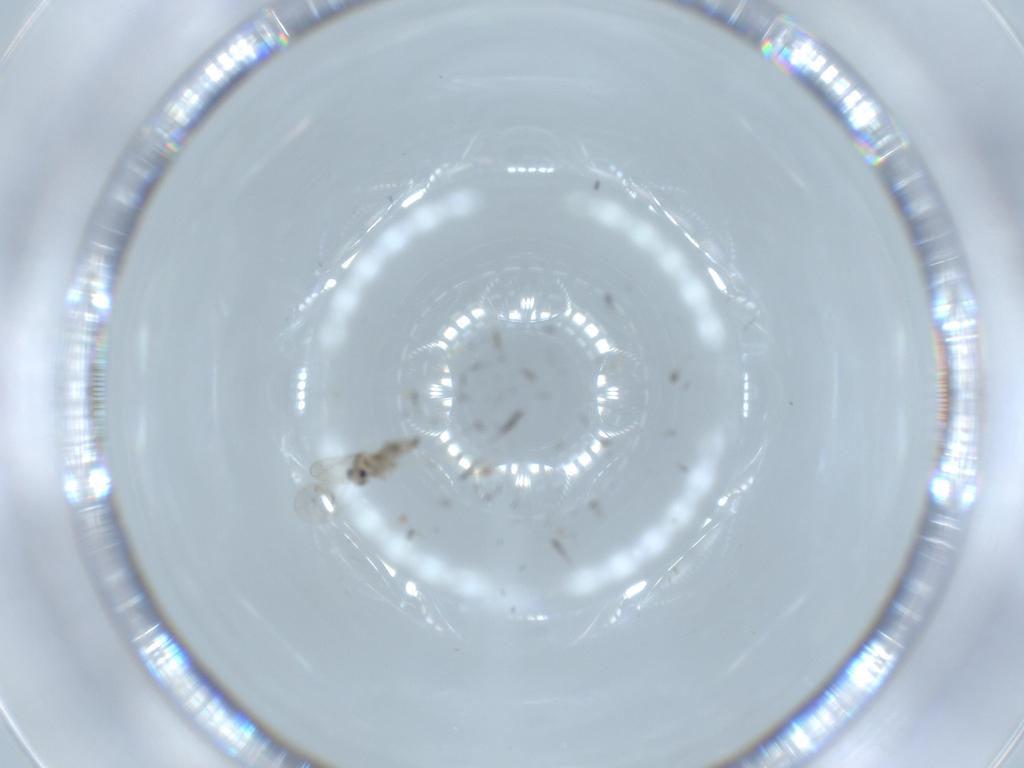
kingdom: Animalia
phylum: Arthropoda
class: Insecta
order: Diptera
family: Cecidomyiidae
